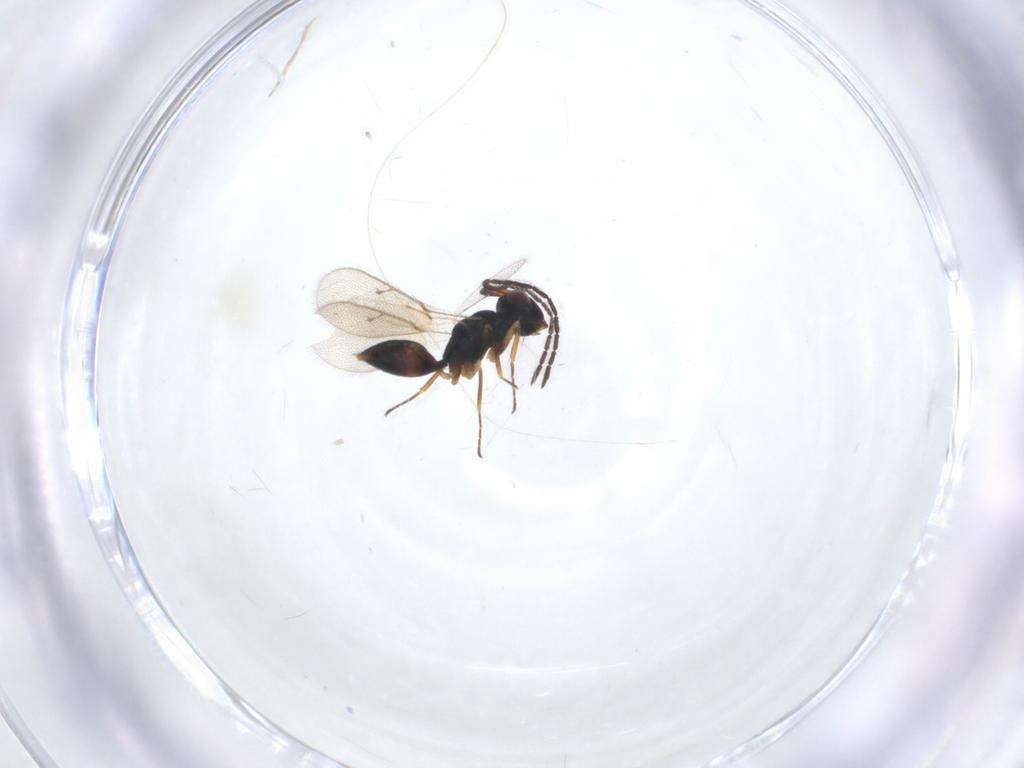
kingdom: Animalia
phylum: Arthropoda
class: Insecta
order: Hymenoptera
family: Pteromalidae
